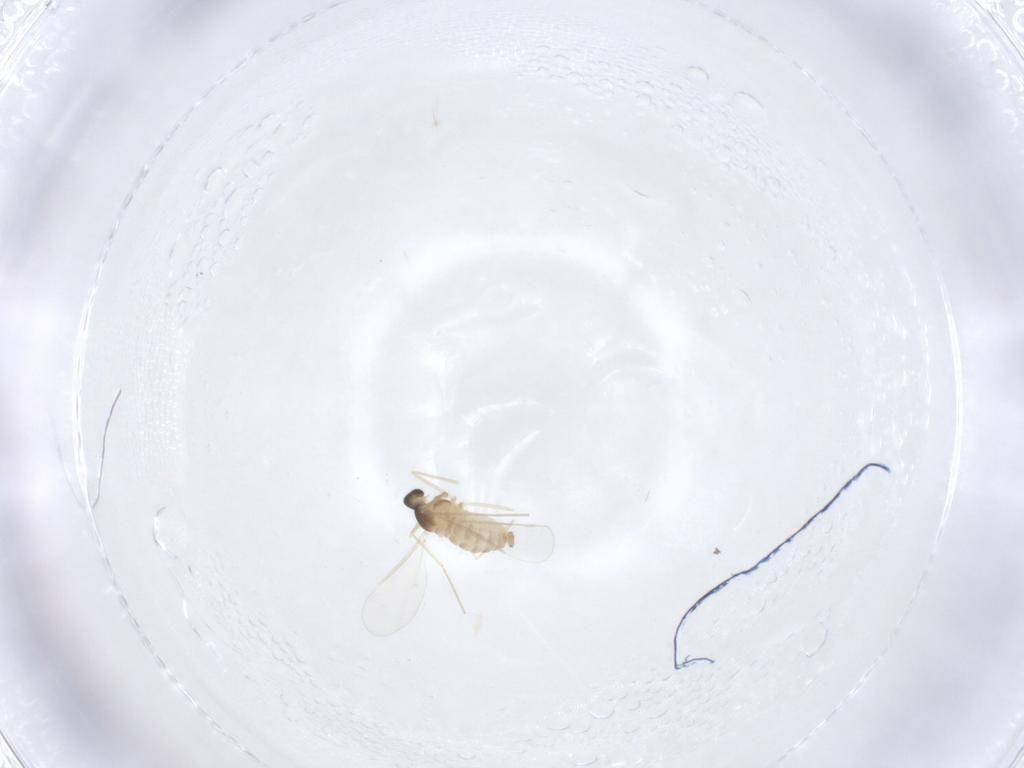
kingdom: Animalia
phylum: Arthropoda
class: Insecta
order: Diptera
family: Cecidomyiidae
